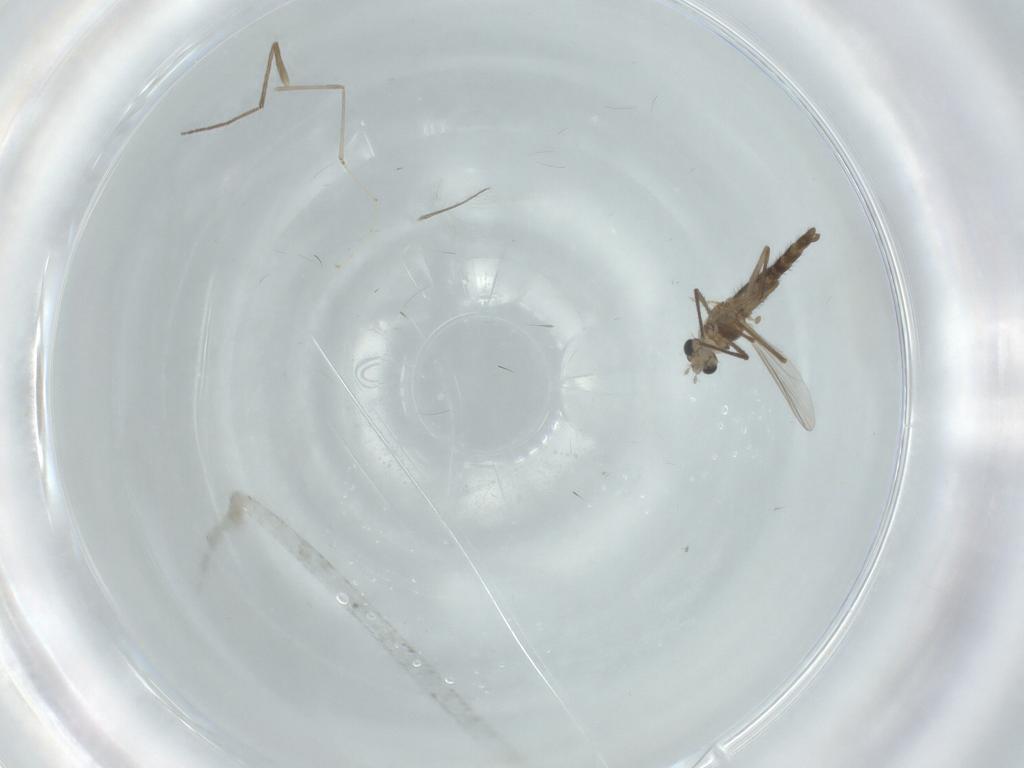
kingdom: Animalia
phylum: Arthropoda
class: Insecta
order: Diptera
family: Chironomidae
